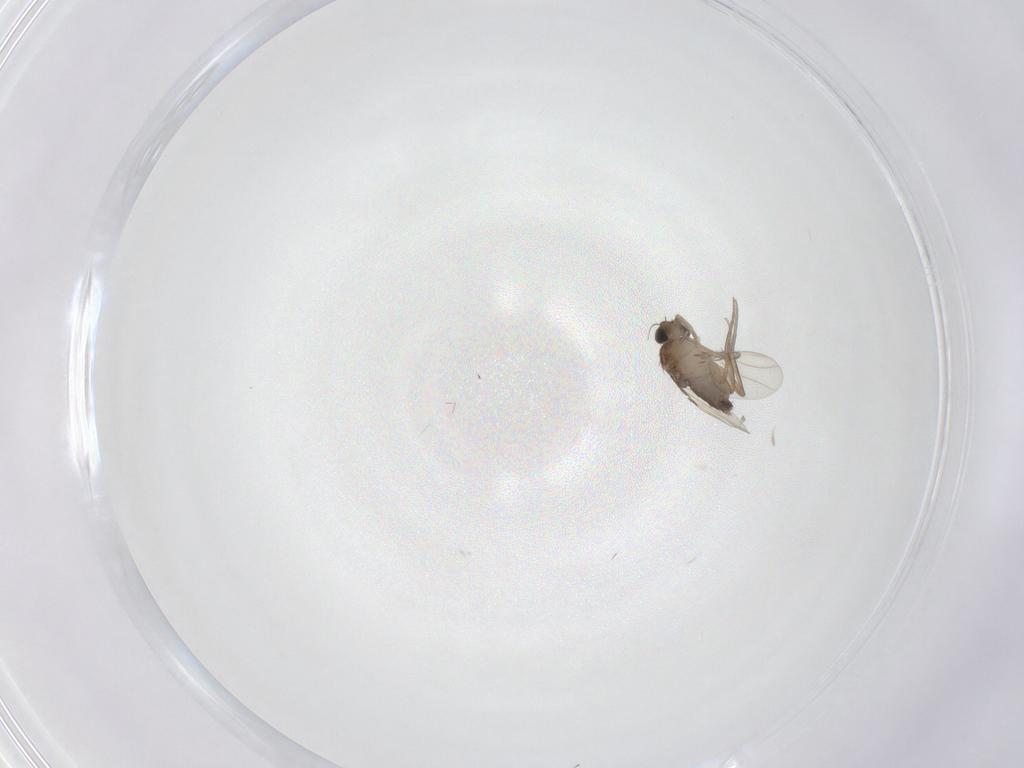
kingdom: Animalia
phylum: Arthropoda
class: Insecta
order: Diptera
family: Phoridae
